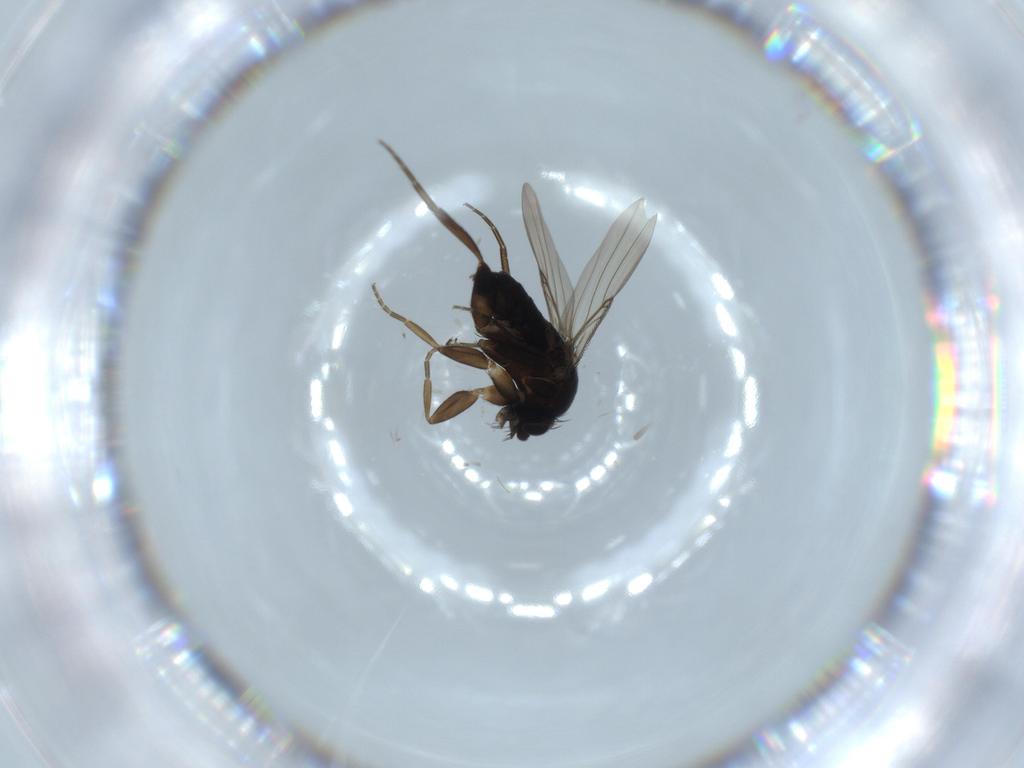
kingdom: Animalia
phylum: Arthropoda
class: Insecta
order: Diptera
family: Phoridae
